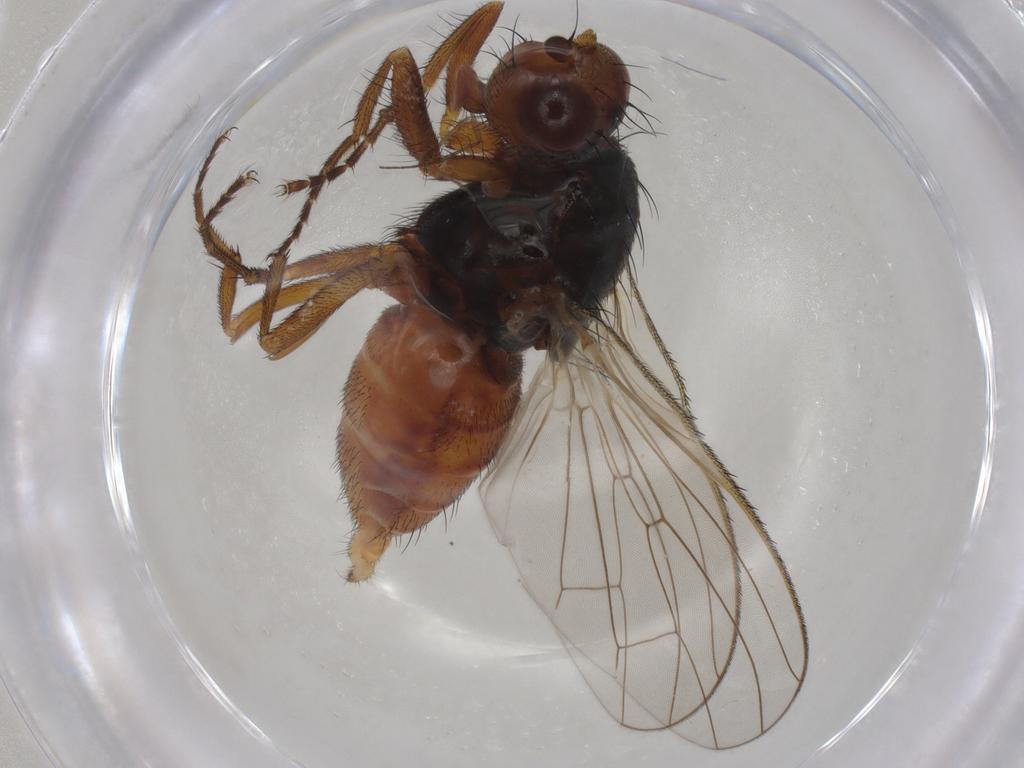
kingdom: Animalia
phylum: Arthropoda
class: Insecta
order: Diptera
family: Heleomyzidae
